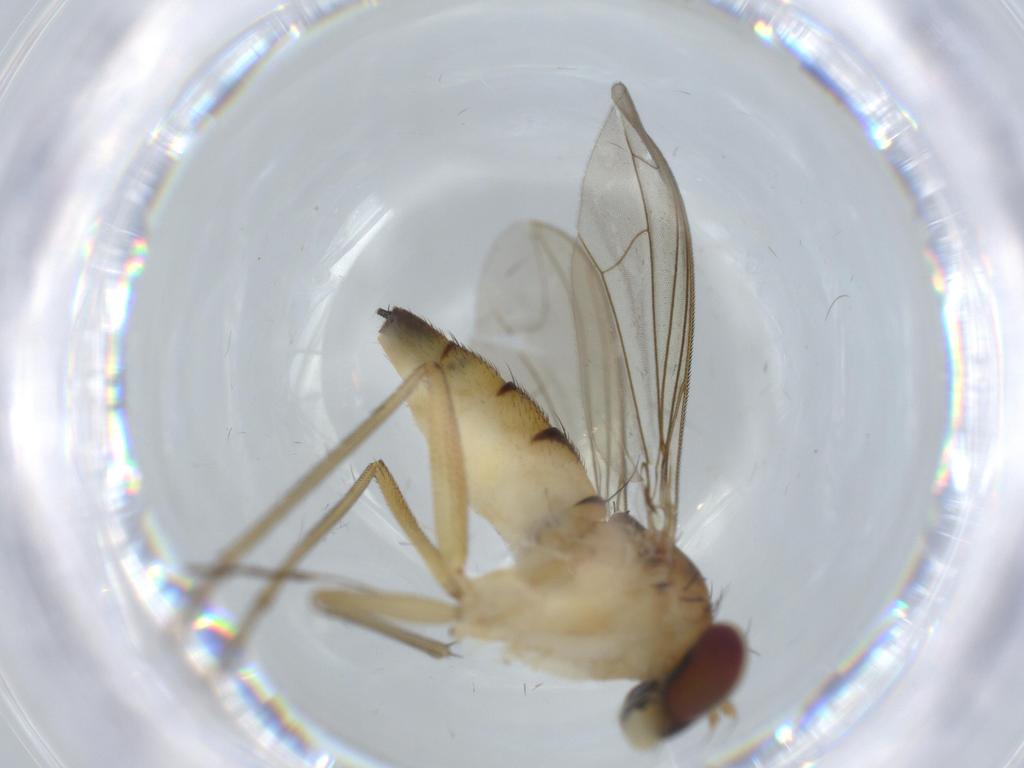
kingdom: Animalia
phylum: Arthropoda
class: Insecta
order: Diptera
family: Dolichopodidae
